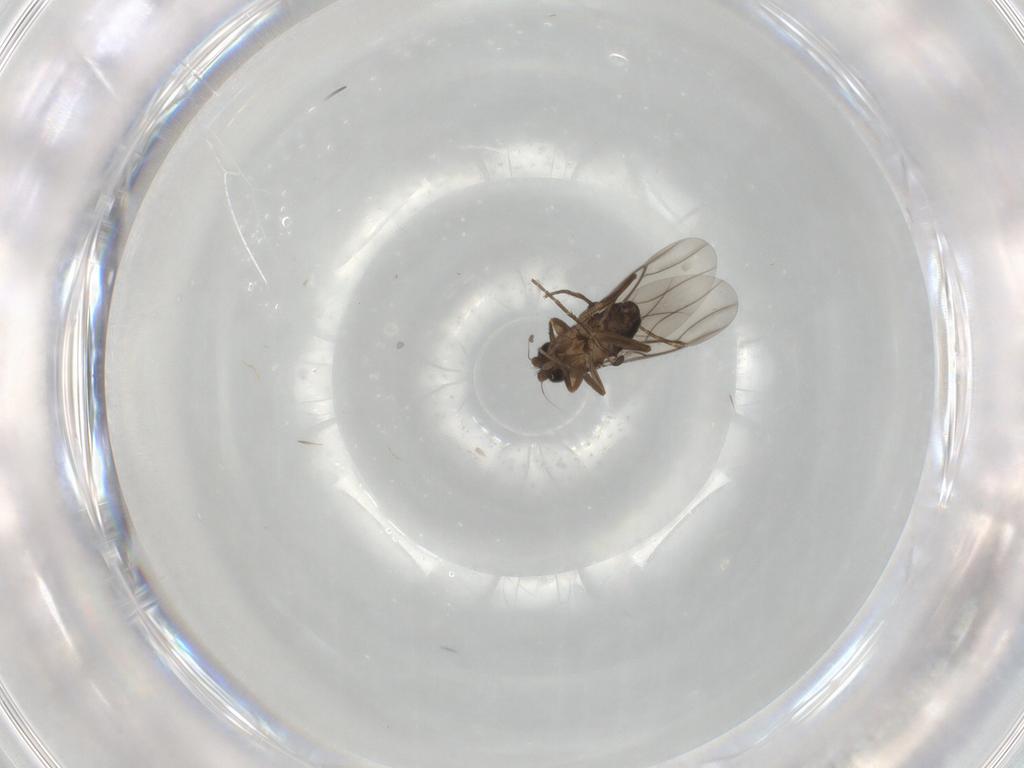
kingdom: Animalia
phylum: Arthropoda
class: Insecta
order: Diptera
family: Phoridae
